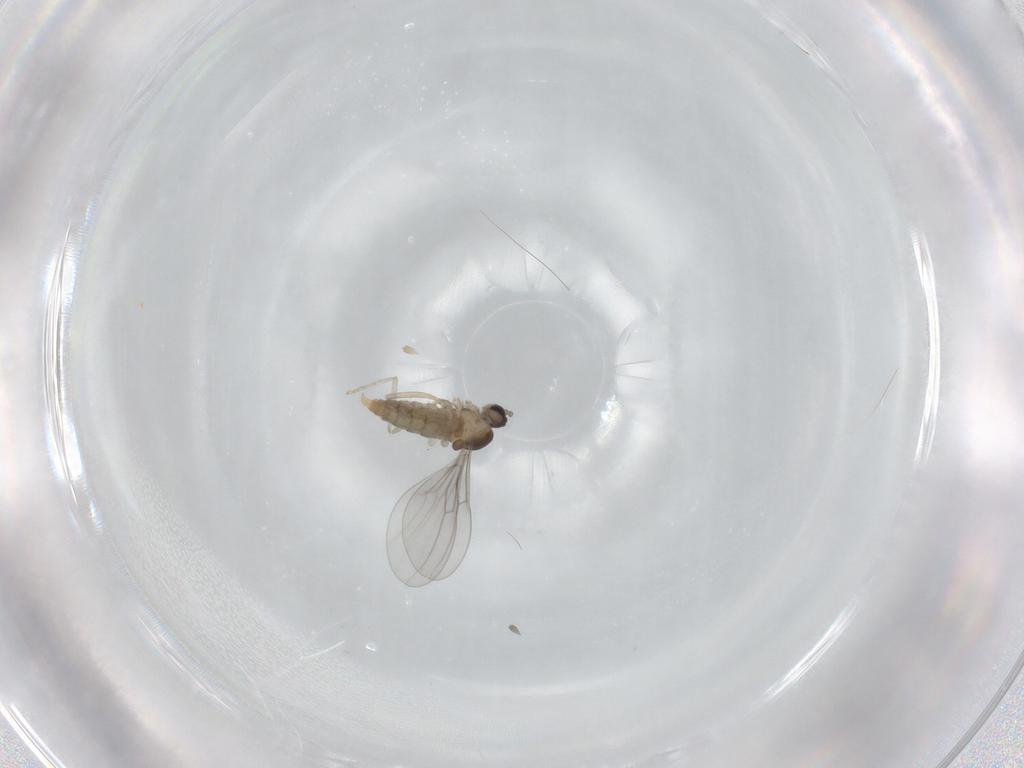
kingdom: Animalia
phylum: Arthropoda
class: Insecta
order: Diptera
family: Cecidomyiidae
